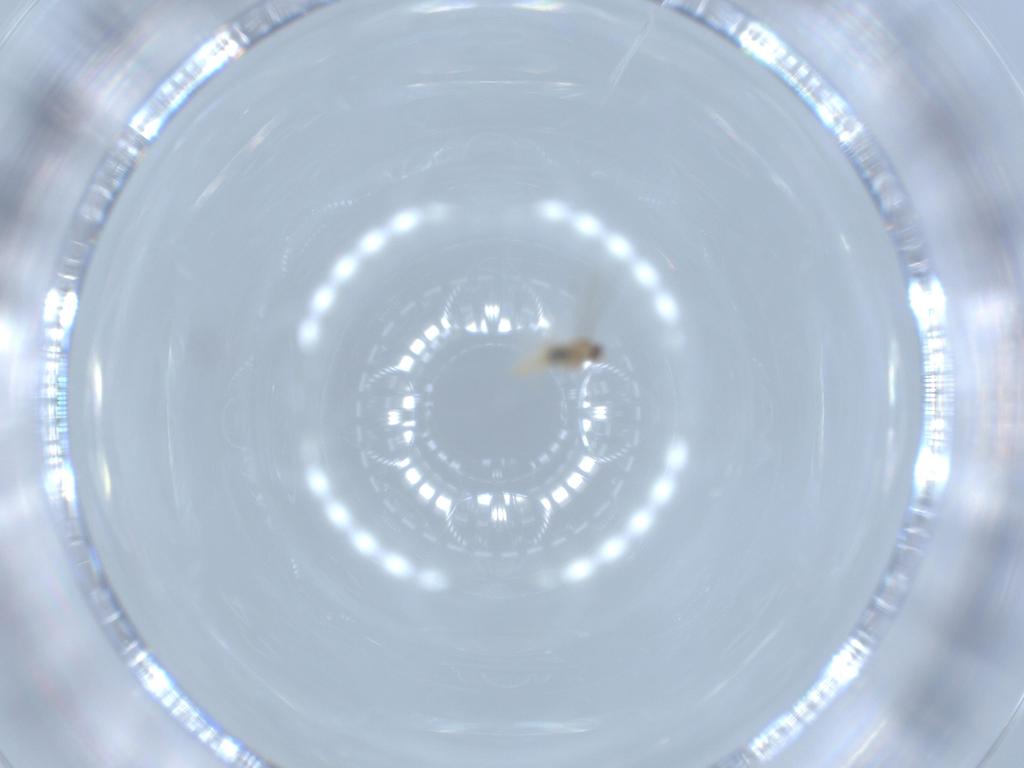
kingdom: Animalia
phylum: Arthropoda
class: Insecta
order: Diptera
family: Cecidomyiidae
